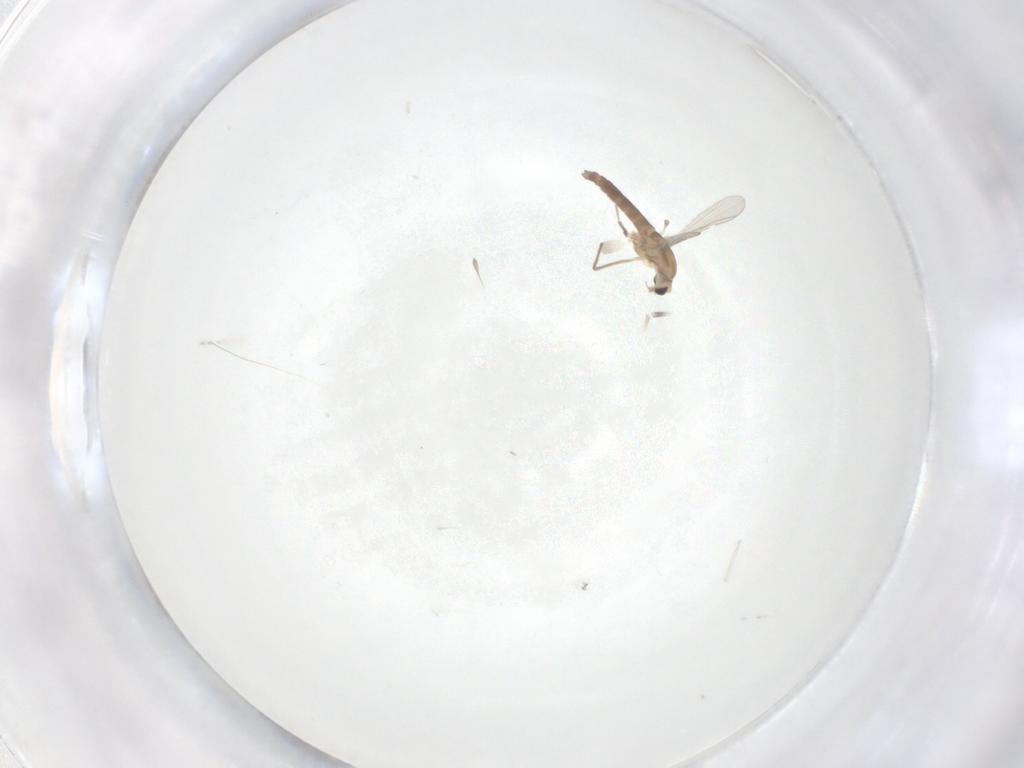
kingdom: Animalia
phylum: Arthropoda
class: Insecta
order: Diptera
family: Chironomidae
